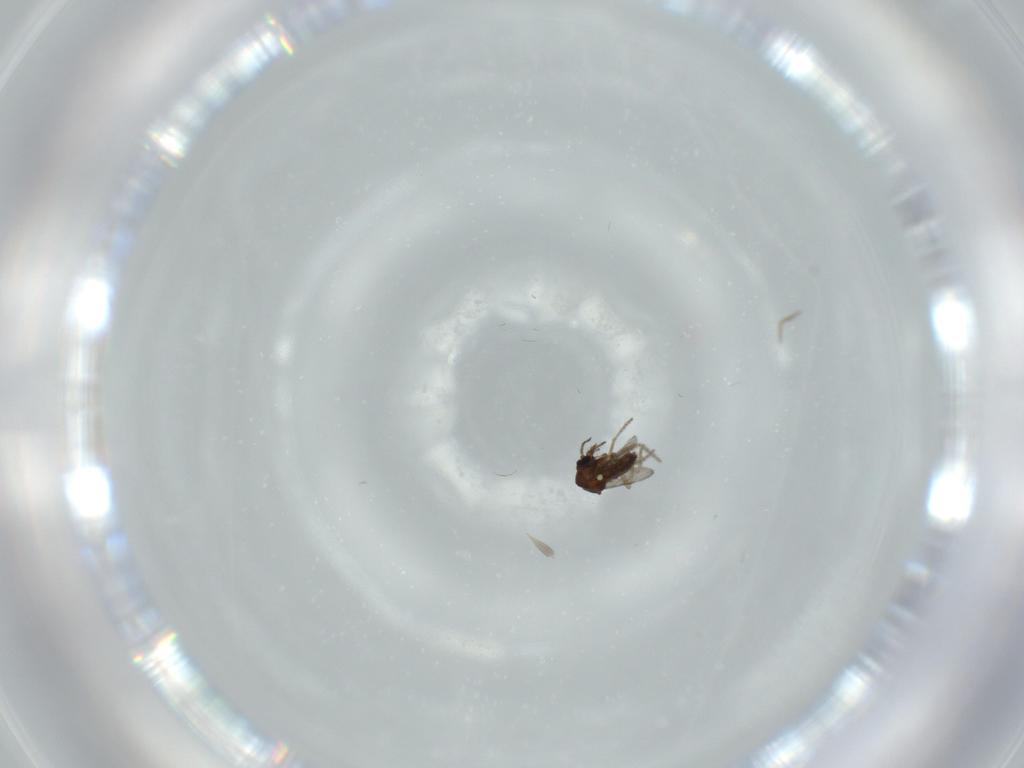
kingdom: Animalia
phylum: Arthropoda
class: Insecta
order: Diptera
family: Ceratopogonidae
